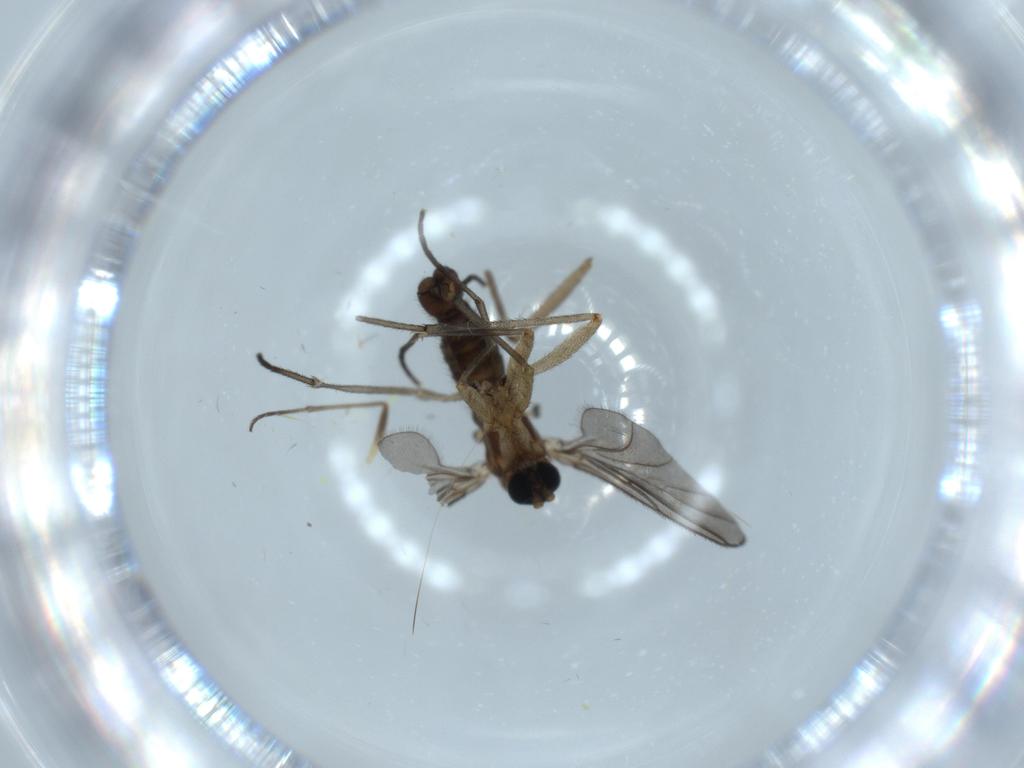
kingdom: Animalia
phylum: Arthropoda
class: Insecta
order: Diptera
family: Sciaridae
